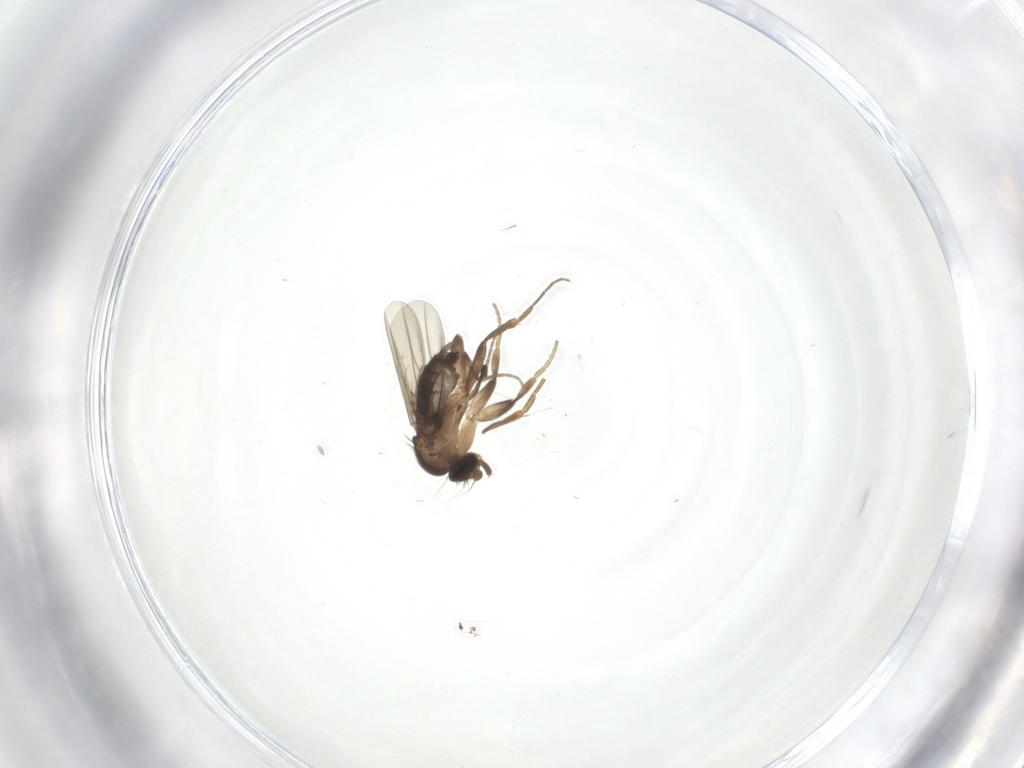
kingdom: Animalia
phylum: Arthropoda
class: Insecta
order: Diptera
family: Phoridae
